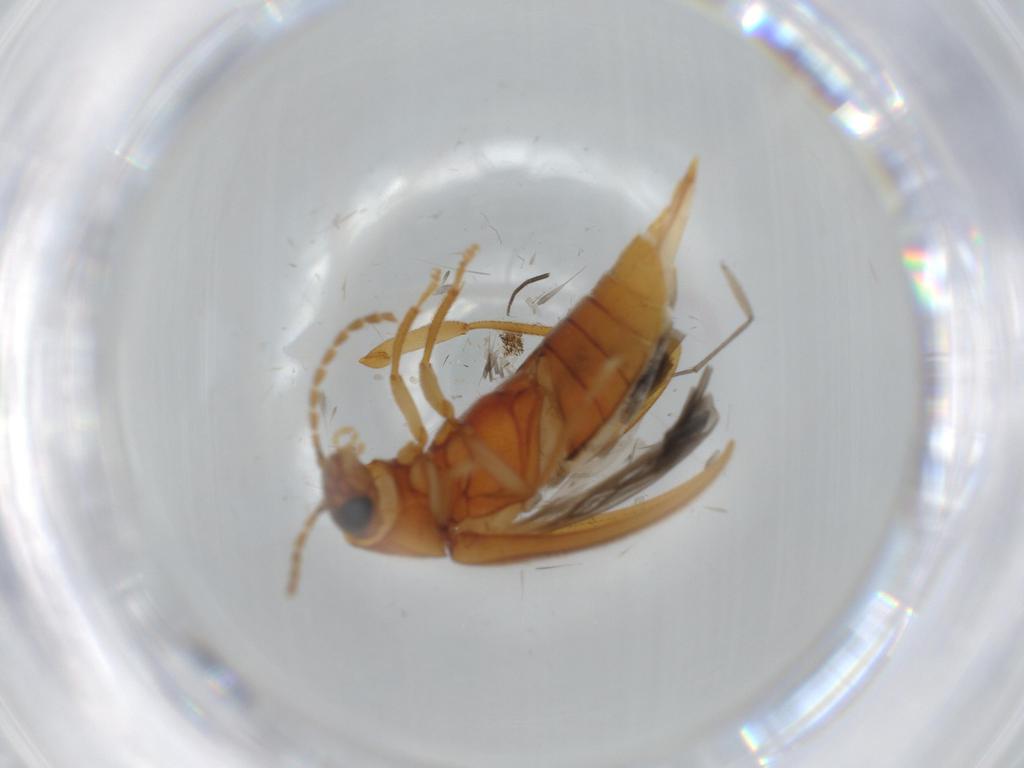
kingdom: Animalia
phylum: Arthropoda
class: Insecta
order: Coleoptera
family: Ptilodactylidae
